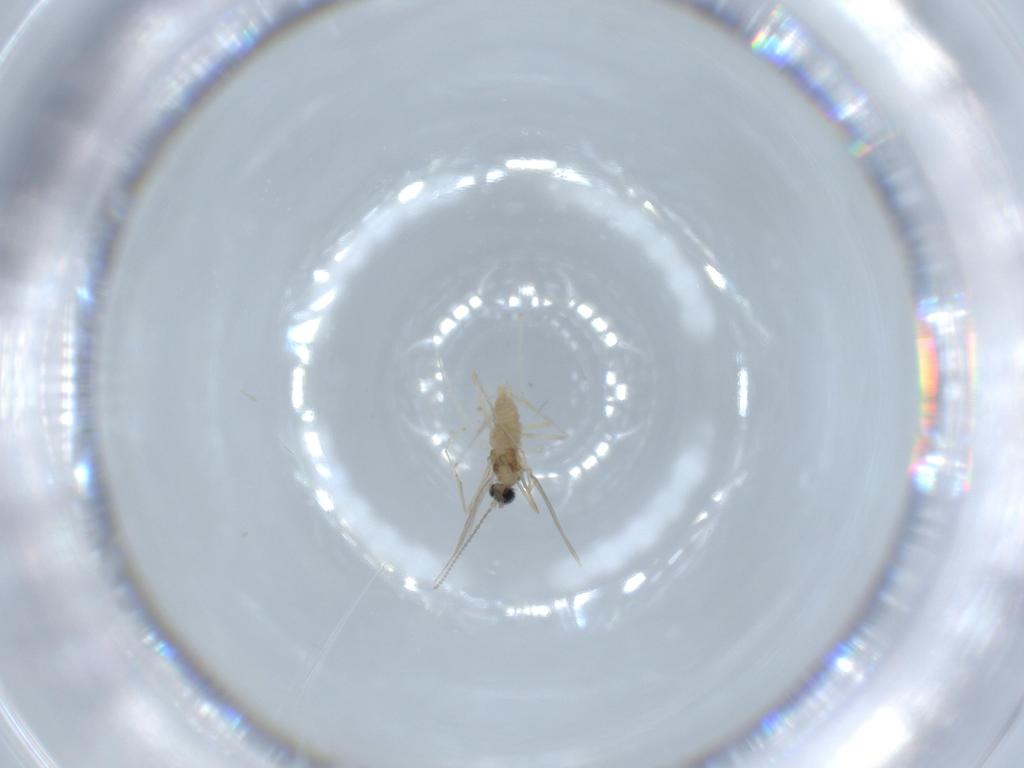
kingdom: Animalia
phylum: Arthropoda
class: Insecta
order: Diptera
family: Cecidomyiidae
